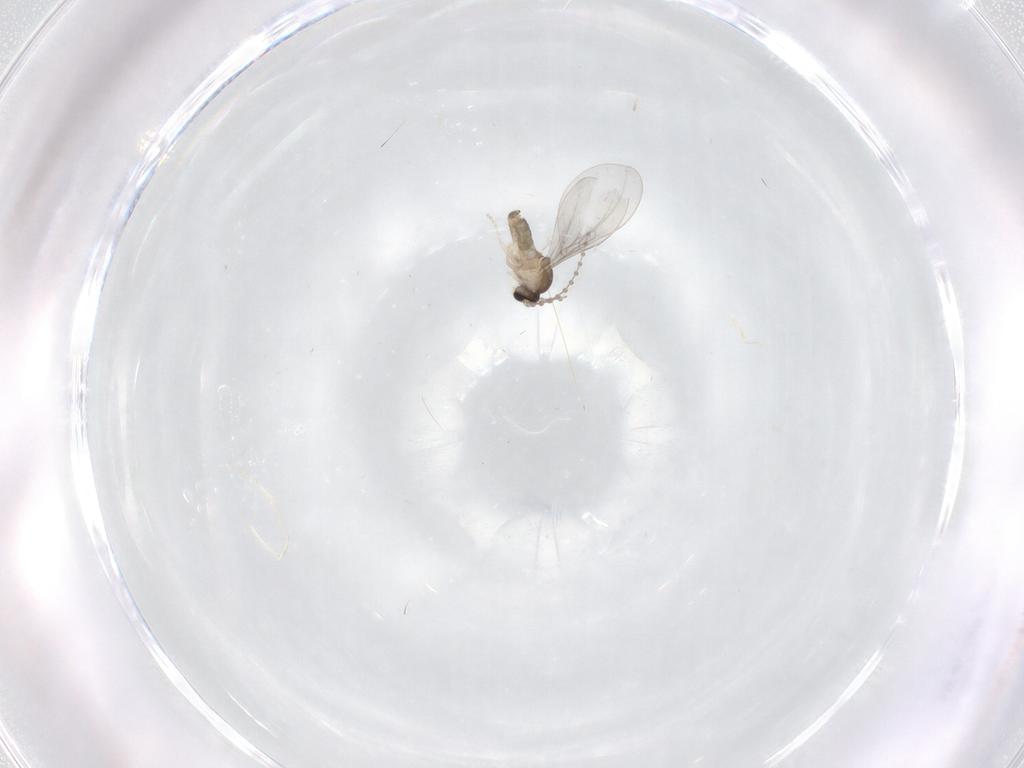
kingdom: Animalia
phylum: Arthropoda
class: Insecta
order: Diptera
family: Cecidomyiidae
